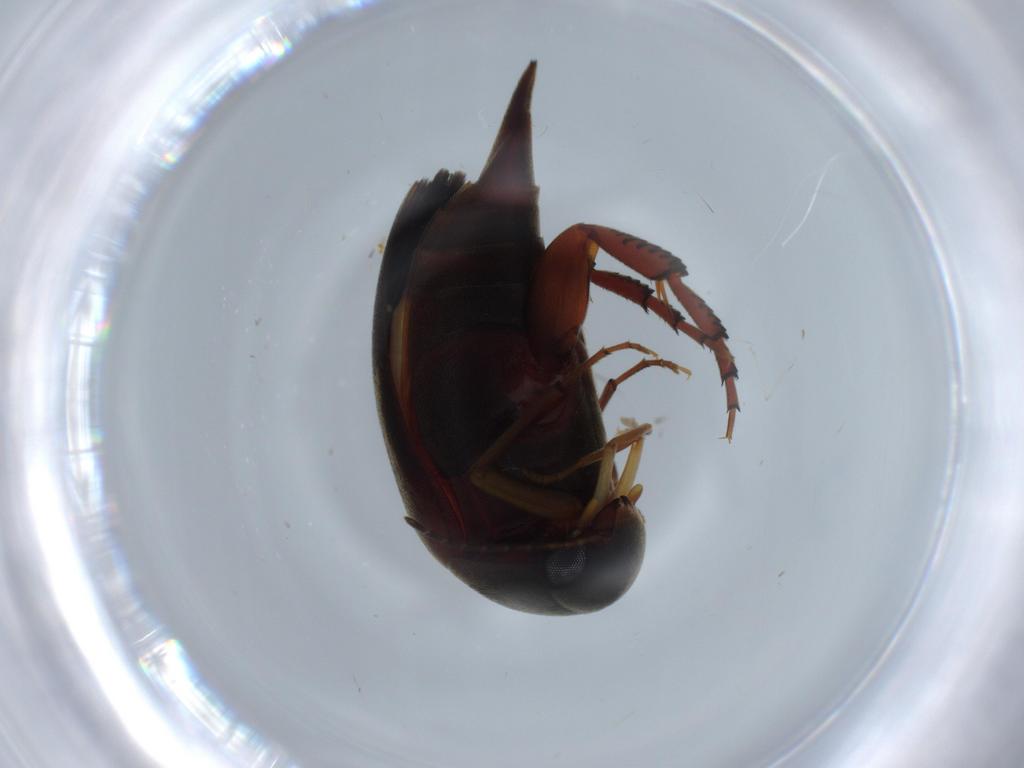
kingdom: Animalia
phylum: Arthropoda
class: Insecta
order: Coleoptera
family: Mordellidae
